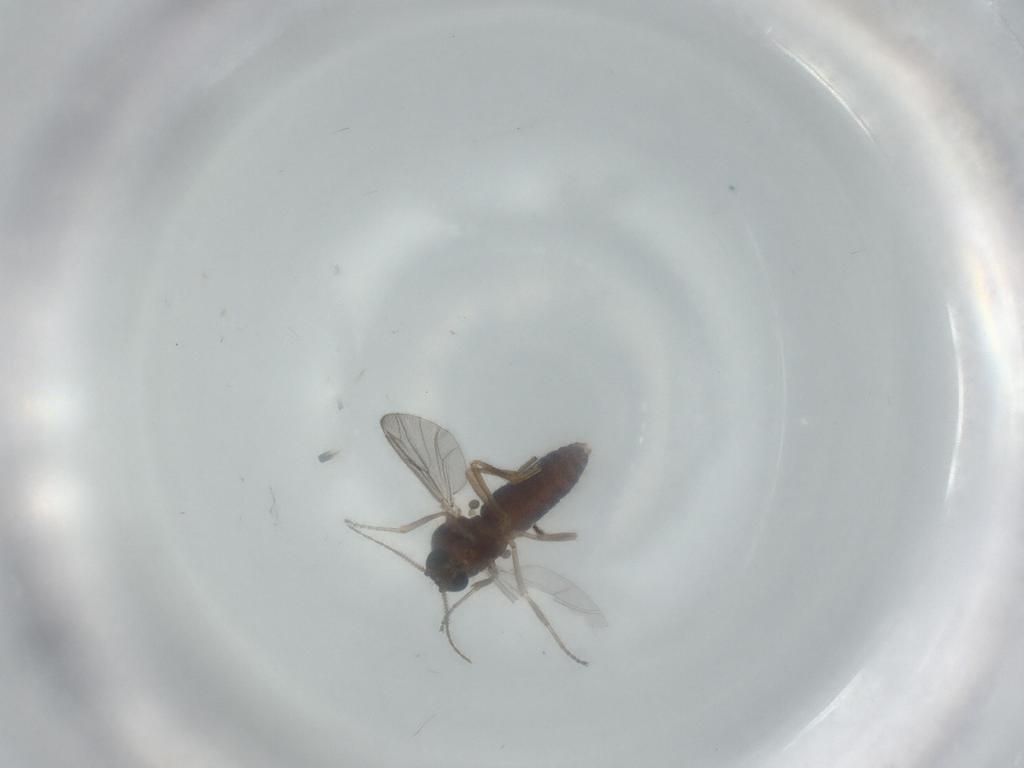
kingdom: Animalia
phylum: Arthropoda
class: Insecta
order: Diptera
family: Ceratopogonidae
